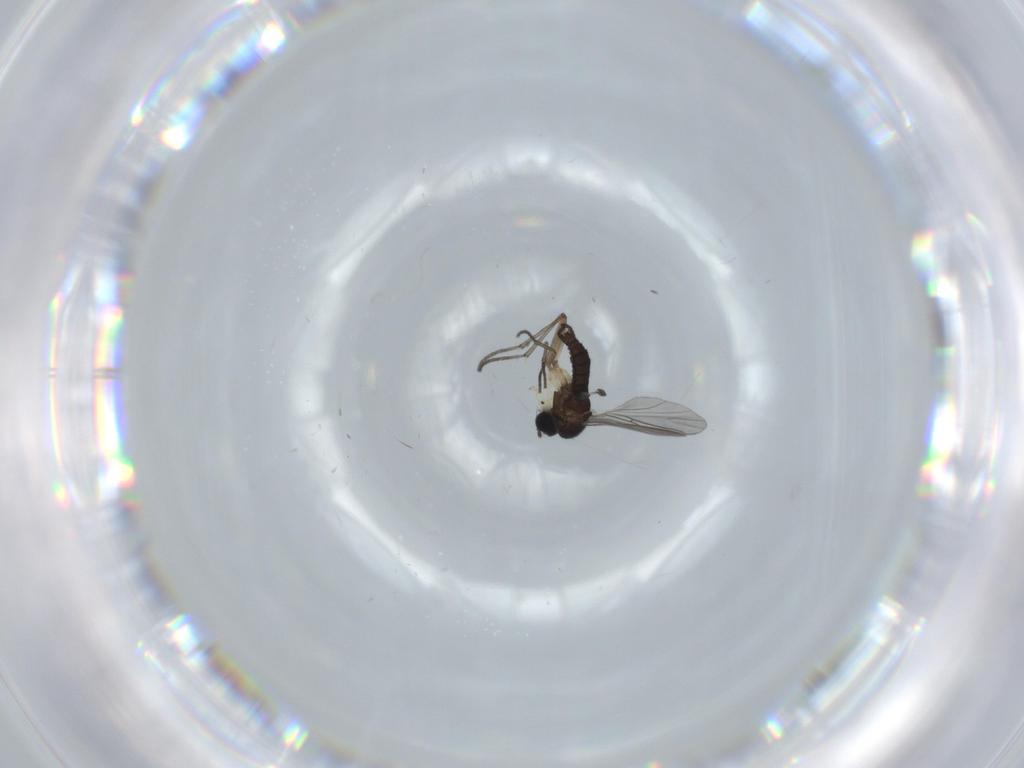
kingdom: Animalia
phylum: Arthropoda
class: Insecta
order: Diptera
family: Sciaridae
